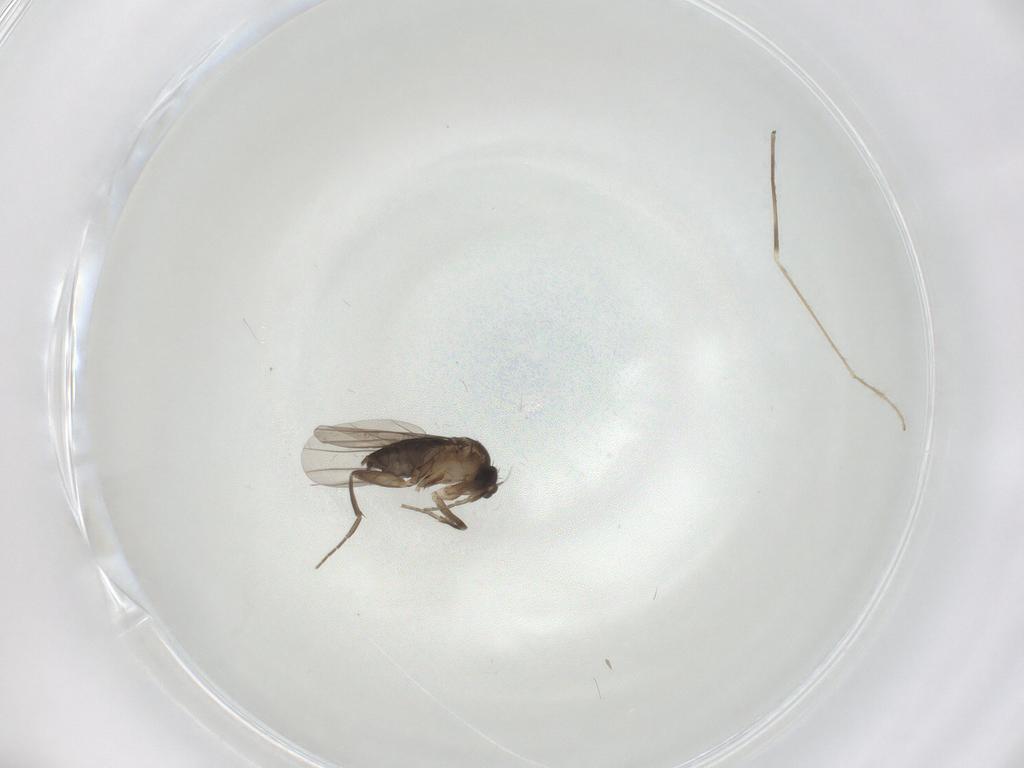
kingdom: Animalia
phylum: Arthropoda
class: Insecta
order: Diptera
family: Phoridae
